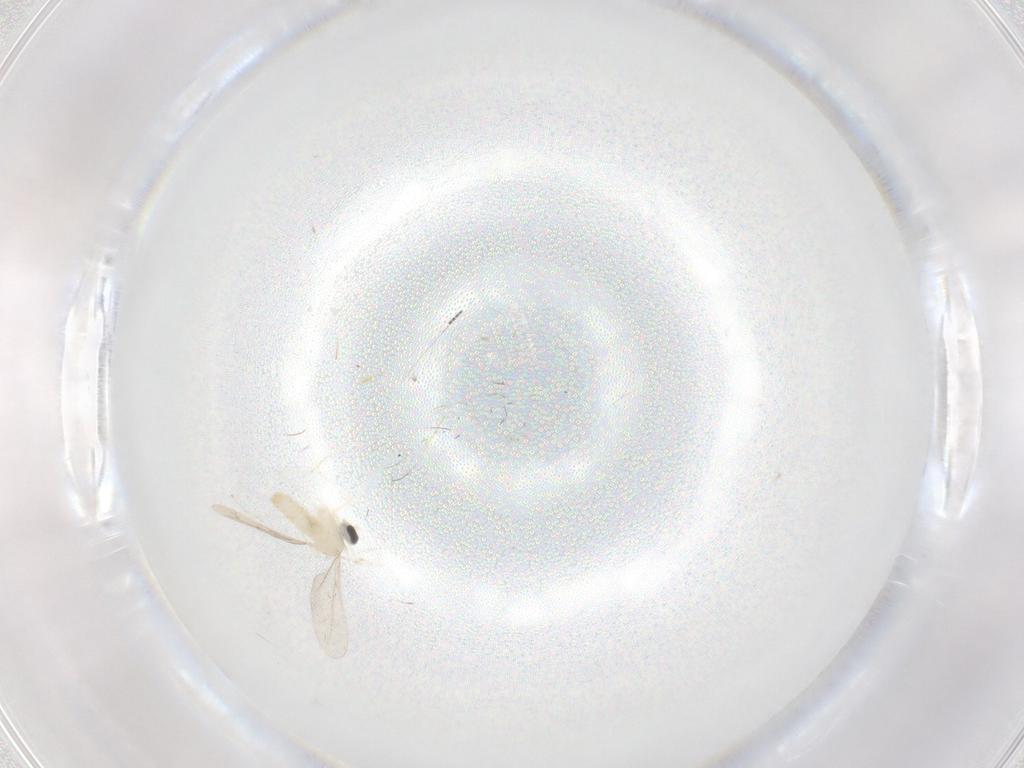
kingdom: Animalia
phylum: Arthropoda
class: Insecta
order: Diptera
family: Cecidomyiidae
